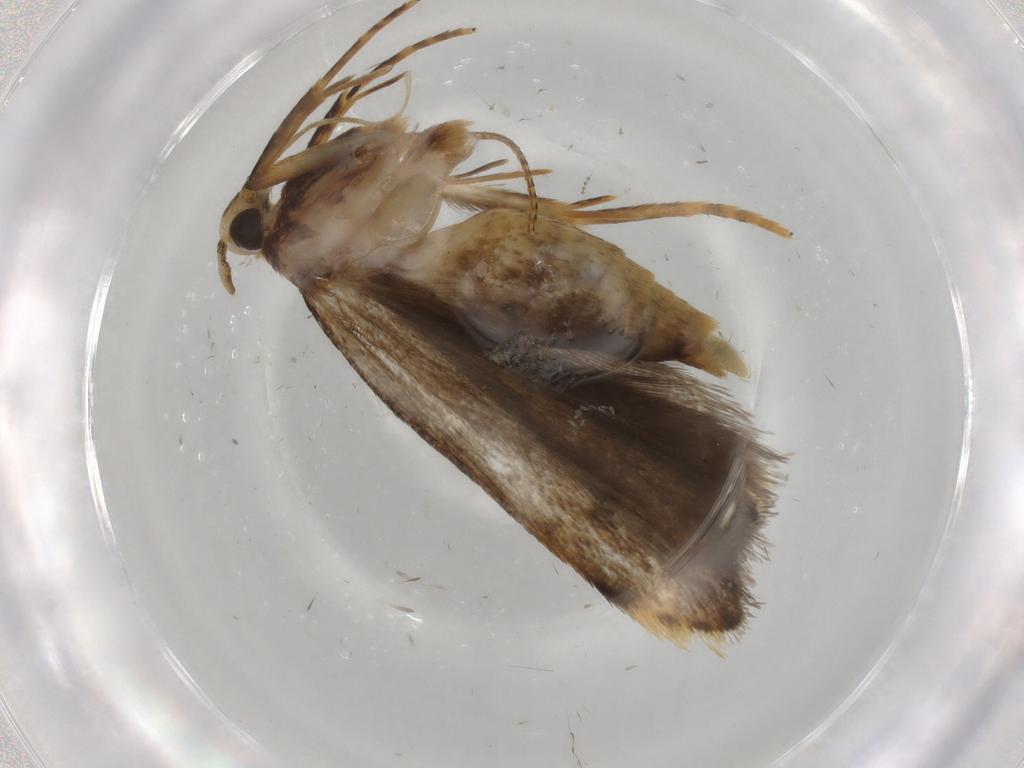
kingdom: Animalia
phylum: Arthropoda
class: Insecta
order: Lepidoptera
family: Autostichidae
